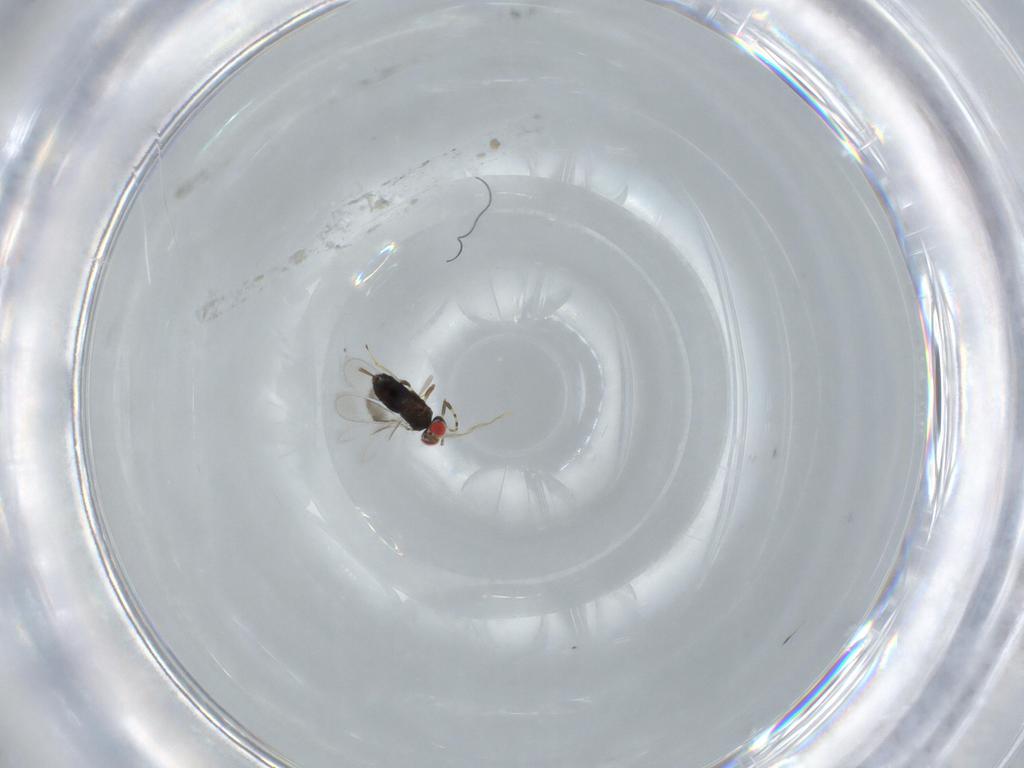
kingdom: Animalia
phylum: Arthropoda
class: Insecta
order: Hymenoptera
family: Azotidae
